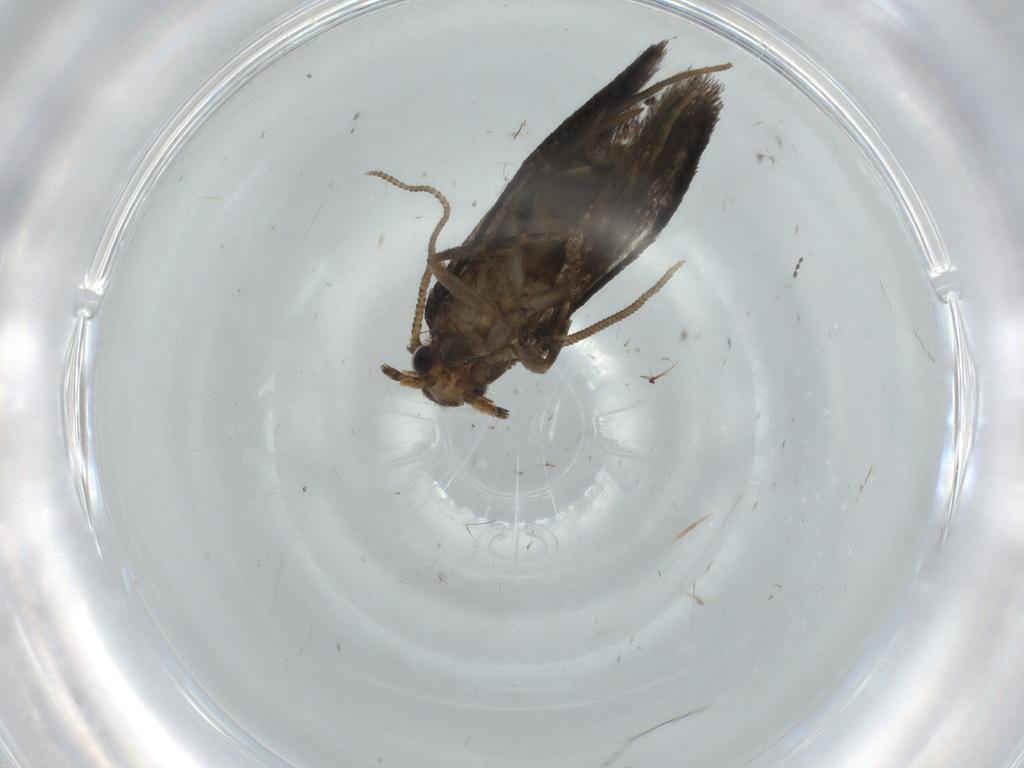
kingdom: Animalia
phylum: Arthropoda
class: Insecta
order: Lepidoptera
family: Tineidae
